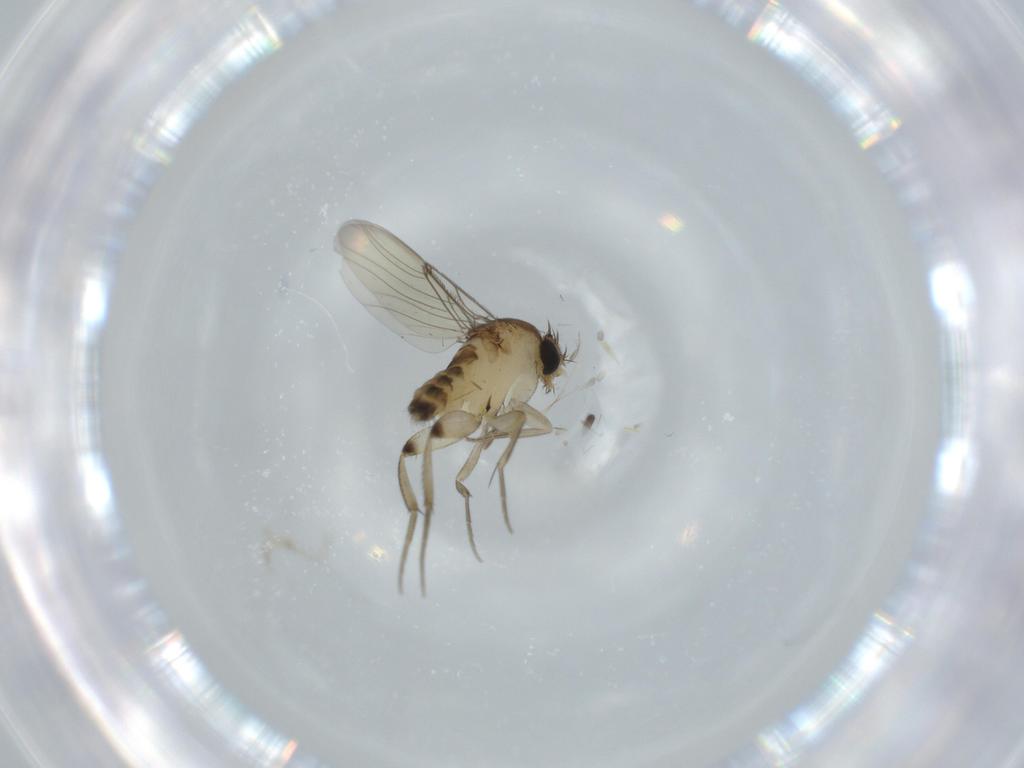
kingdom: Animalia
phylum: Arthropoda
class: Insecta
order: Diptera
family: Phoridae
